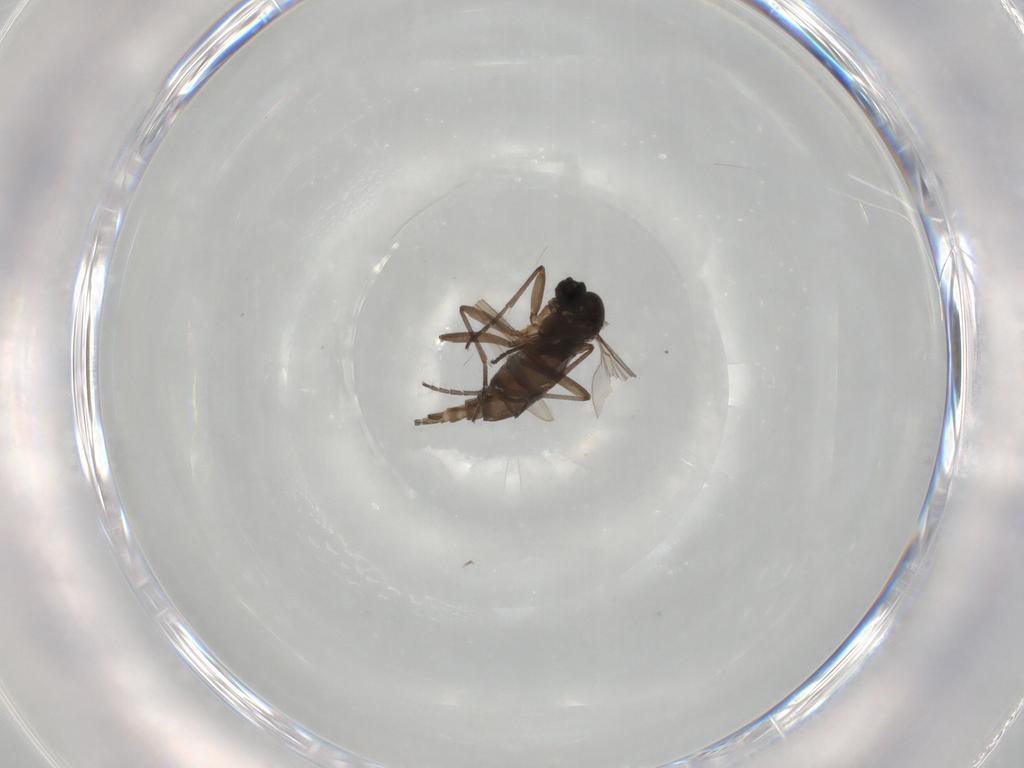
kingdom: Animalia
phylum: Arthropoda
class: Insecta
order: Diptera
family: Sciaridae
